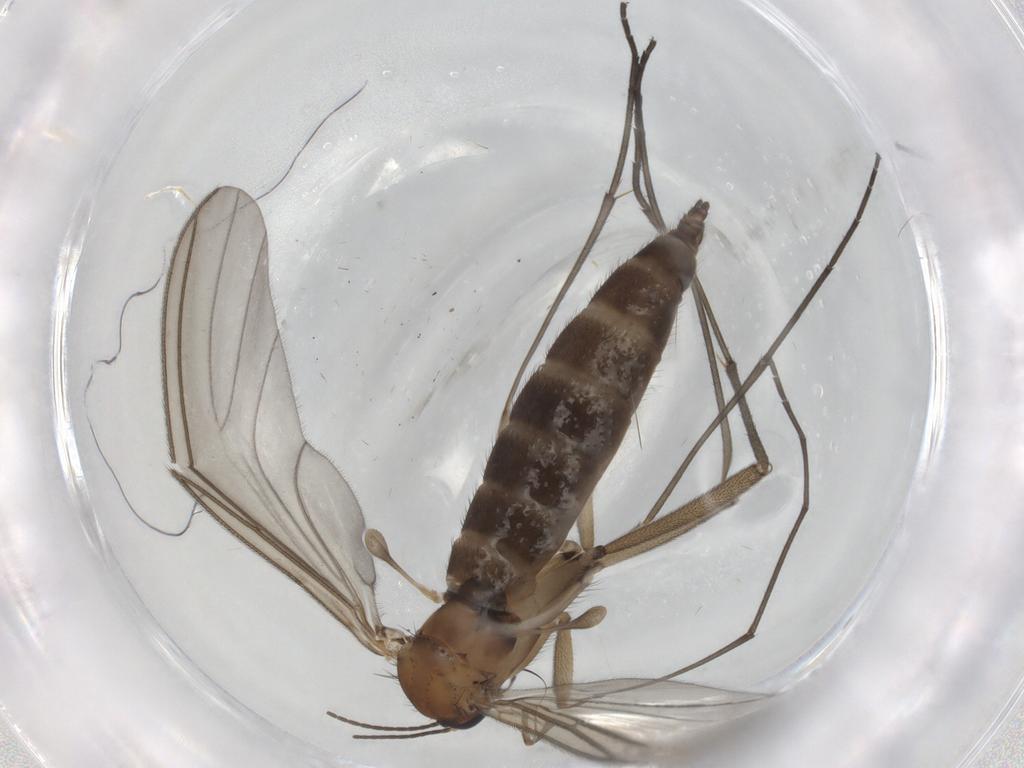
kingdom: Animalia
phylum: Arthropoda
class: Insecta
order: Diptera
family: Sciaridae
